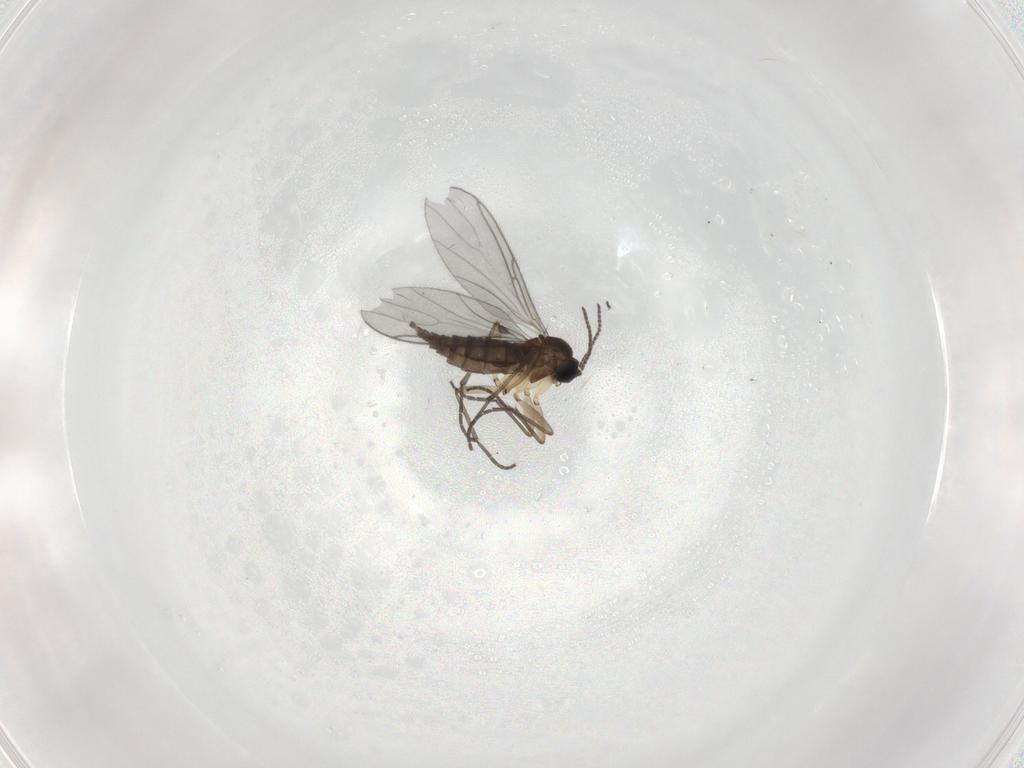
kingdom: Animalia
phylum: Arthropoda
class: Insecta
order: Diptera
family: Sciaridae
